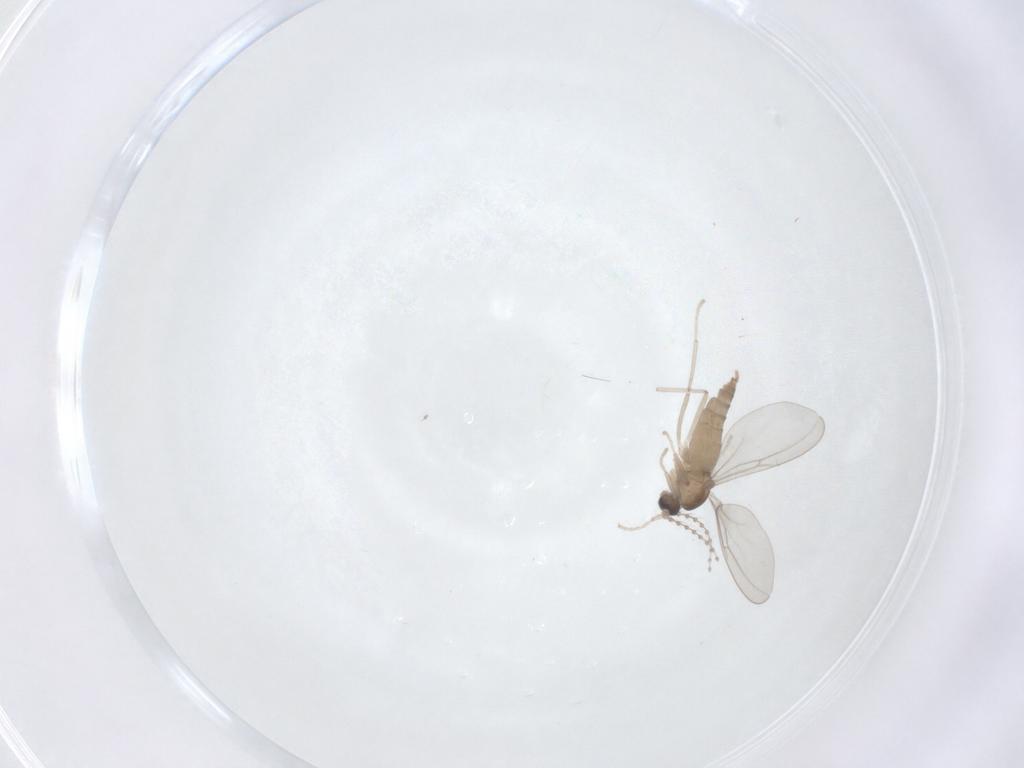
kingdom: Animalia
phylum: Arthropoda
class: Insecta
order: Diptera
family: Cecidomyiidae
